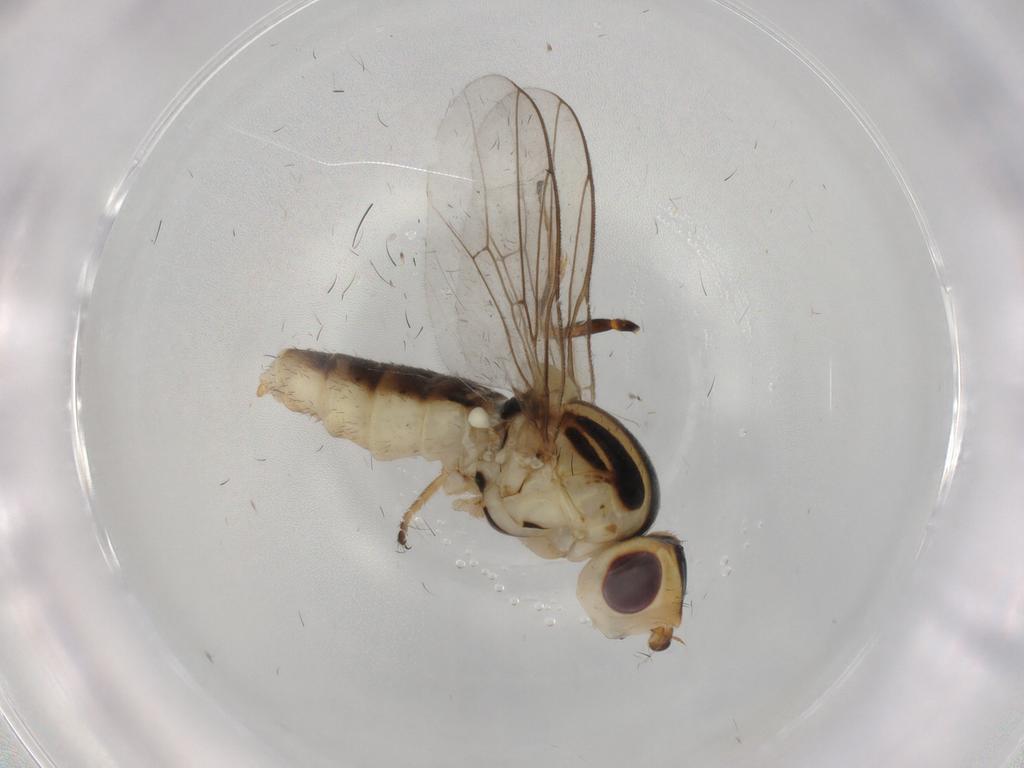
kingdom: Animalia
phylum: Arthropoda
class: Insecta
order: Diptera
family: Chloropidae
